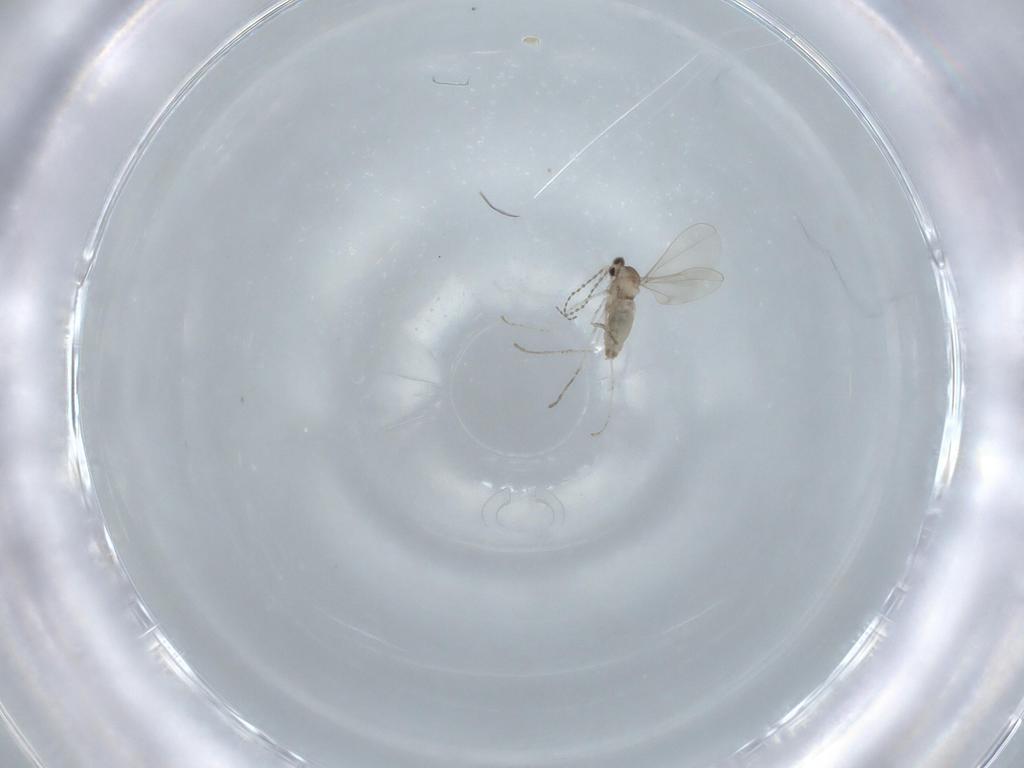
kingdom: Animalia
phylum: Arthropoda
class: Insecta
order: Diptera
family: Cecidomyiidae
